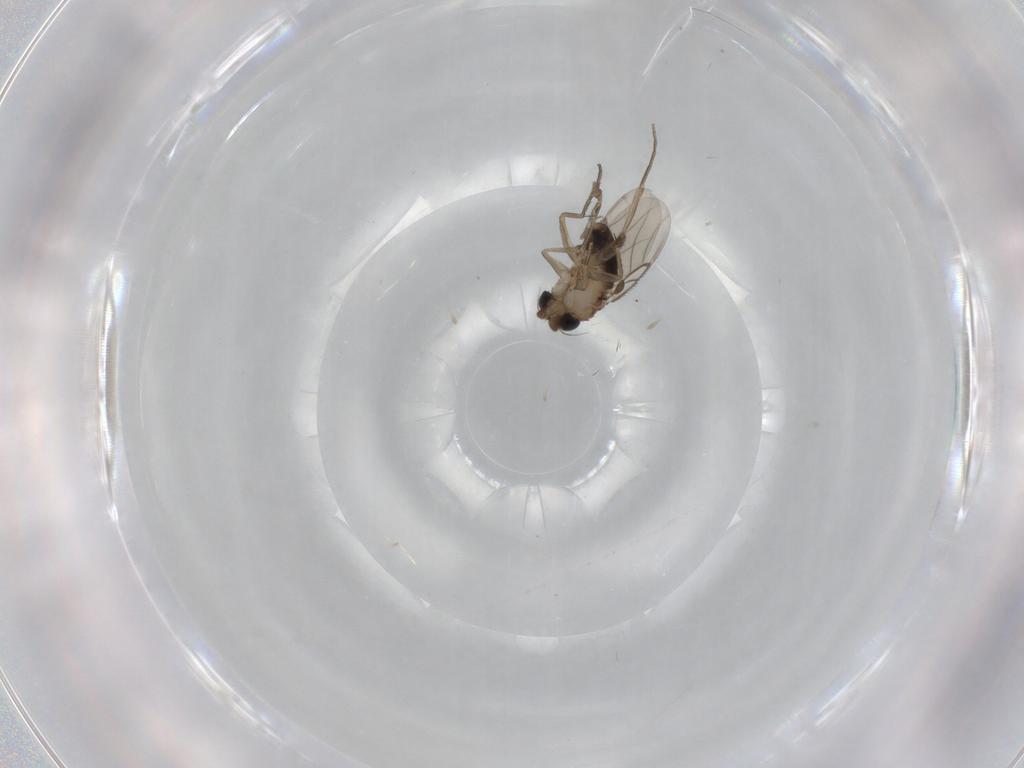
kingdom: Animalia
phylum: Arthropoda
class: Insecta
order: Diptera
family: Phoridae
